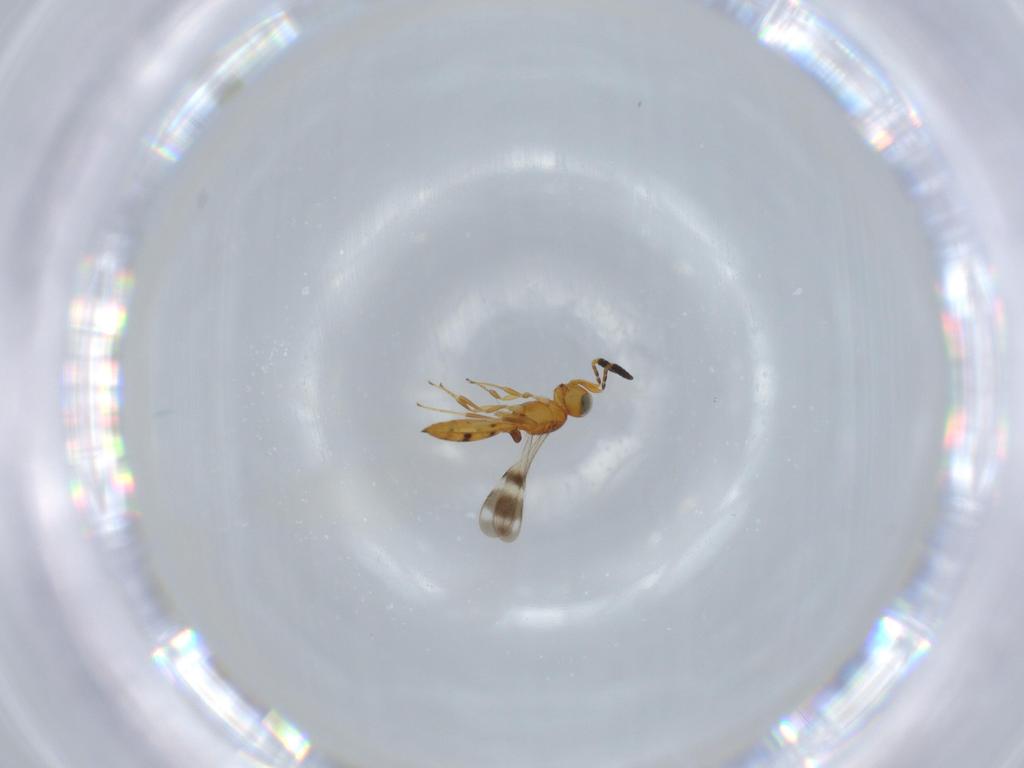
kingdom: Animalia
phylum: Arthropoda
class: Insecta
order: Hymenoptera
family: Scelionidae
